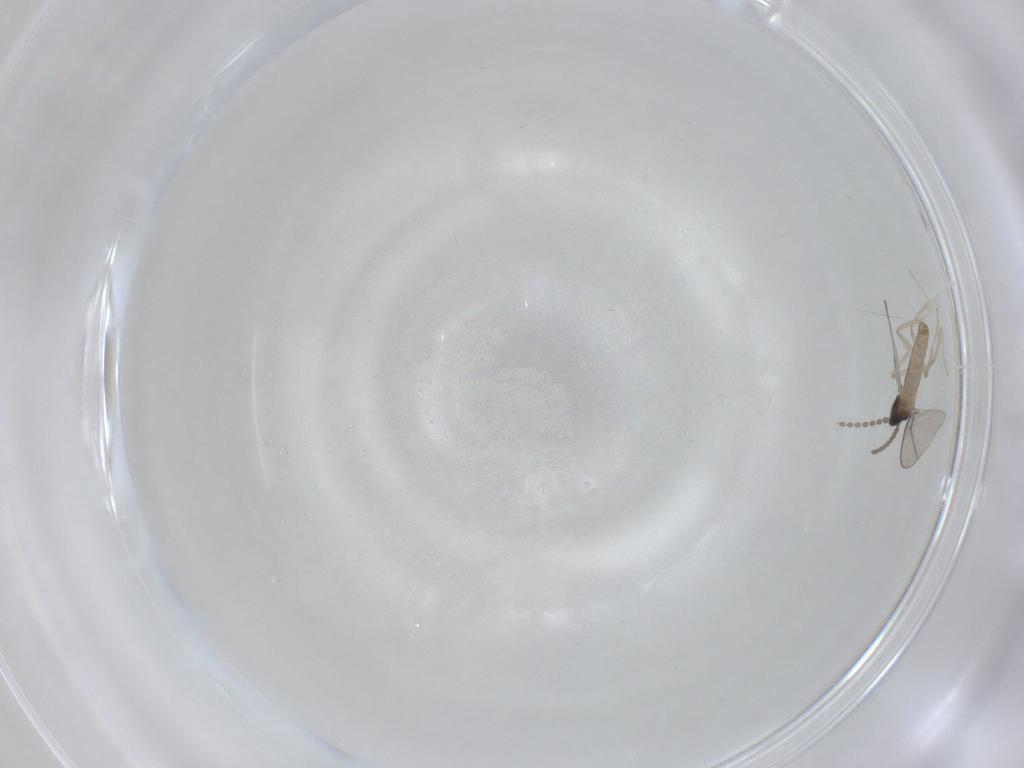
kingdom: Animalia
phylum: Arthropoda
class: Insecta
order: Diptera
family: Cecidomyiidae
